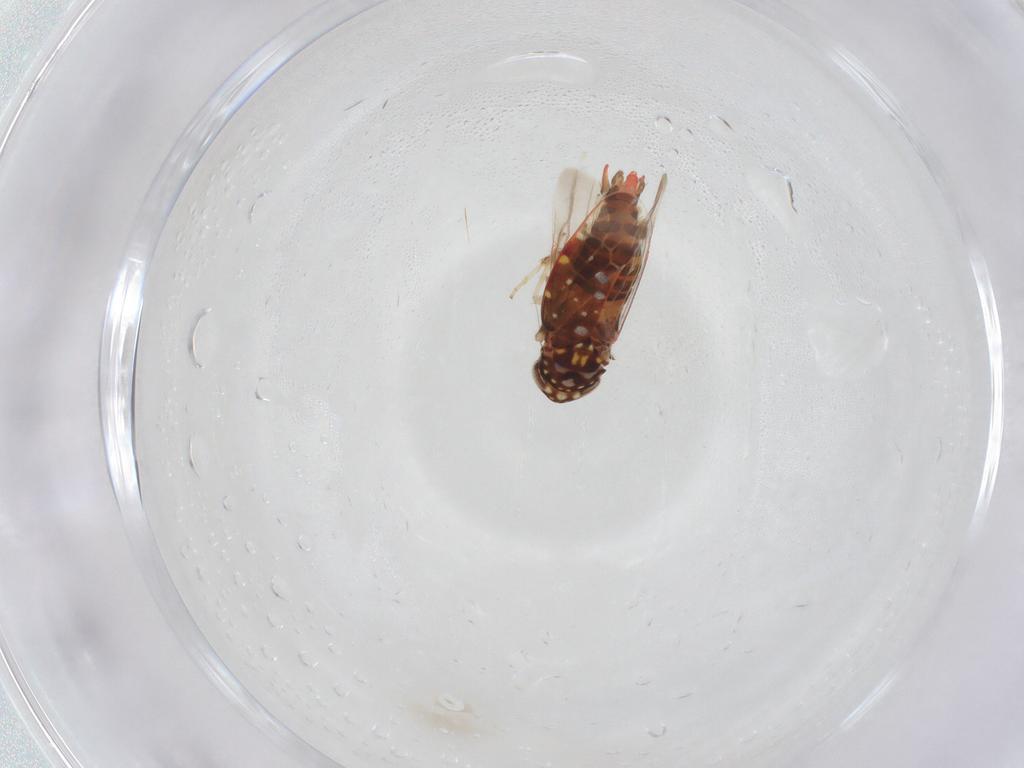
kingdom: Animalia
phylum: Arthropoda
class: Insecta
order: Hemiptera
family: Cicadellidae
